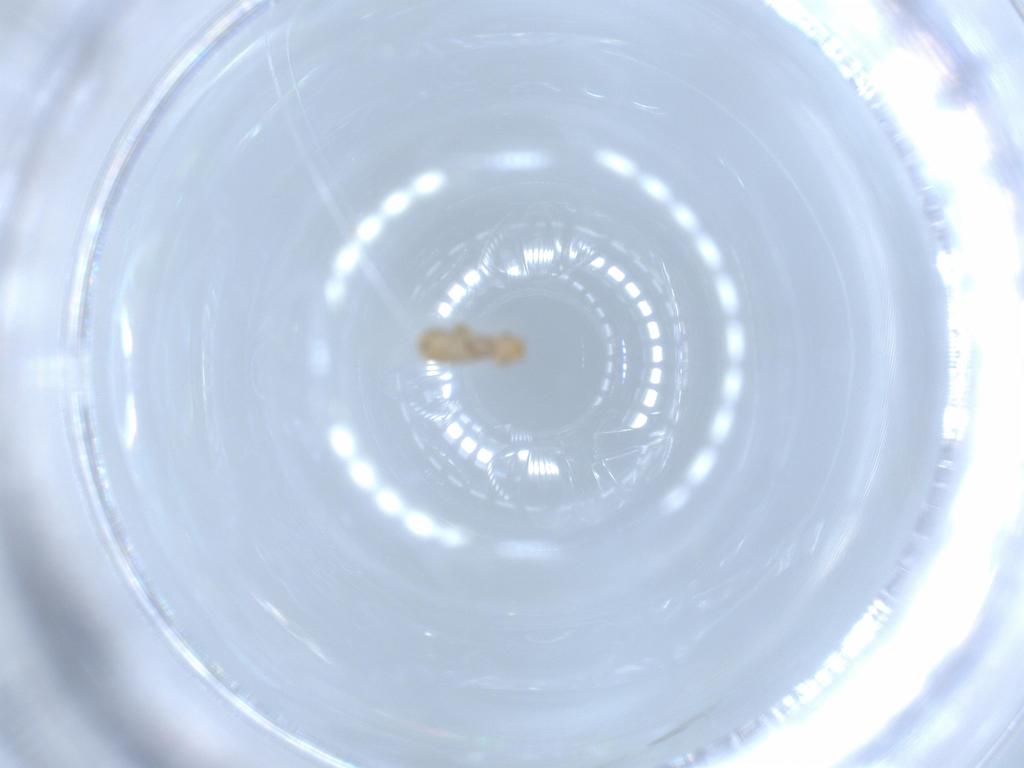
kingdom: Animalia
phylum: Arthropoda
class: Insecta
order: Psocodea
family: Liposcelididae
